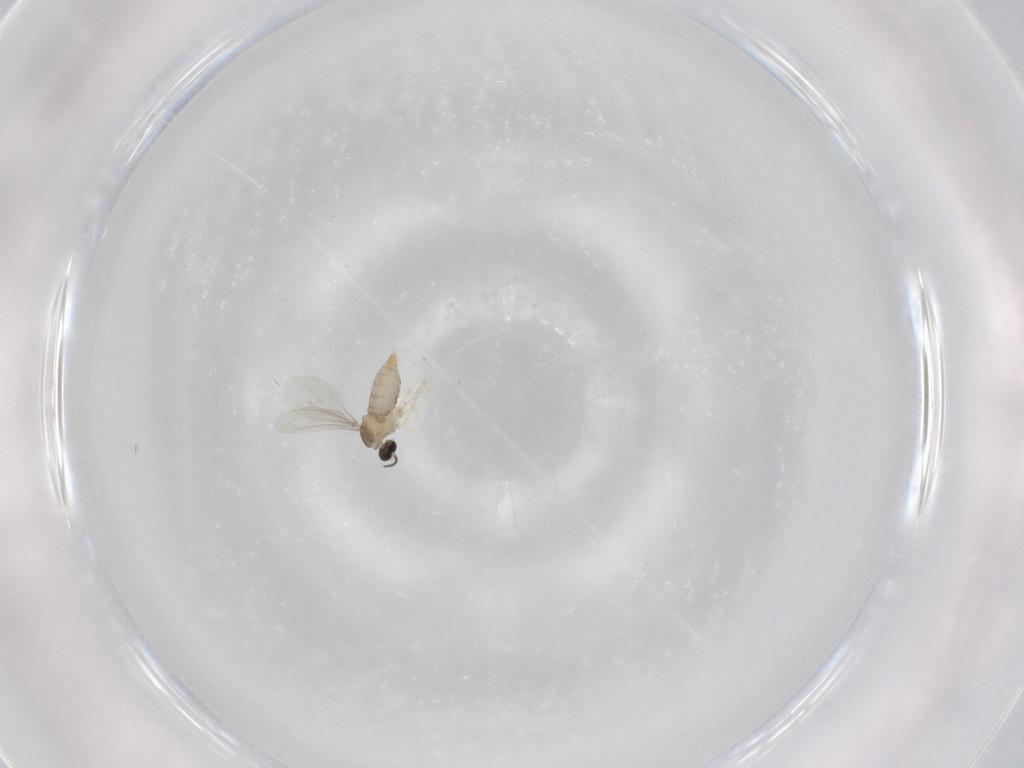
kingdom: Animalia
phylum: Arthropoda
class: Insecta
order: Diptera
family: Cecidomyiidae
